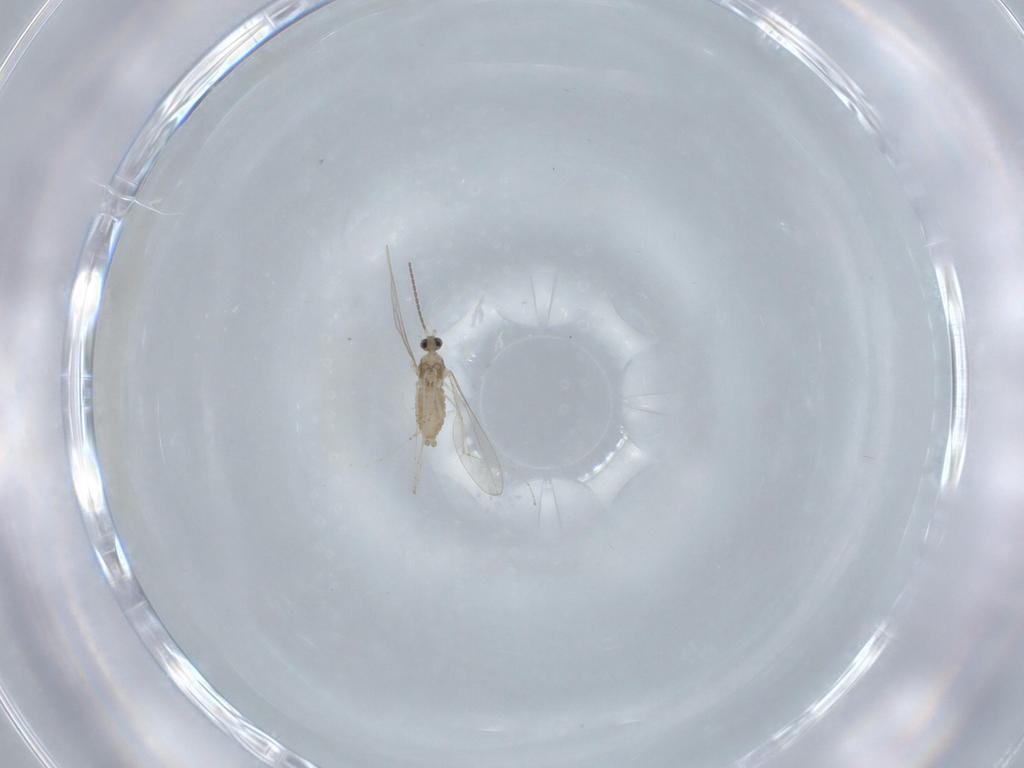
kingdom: Animalia
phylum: Arthropoda
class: Insecta
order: Diptera
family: Cecidomyiidae
